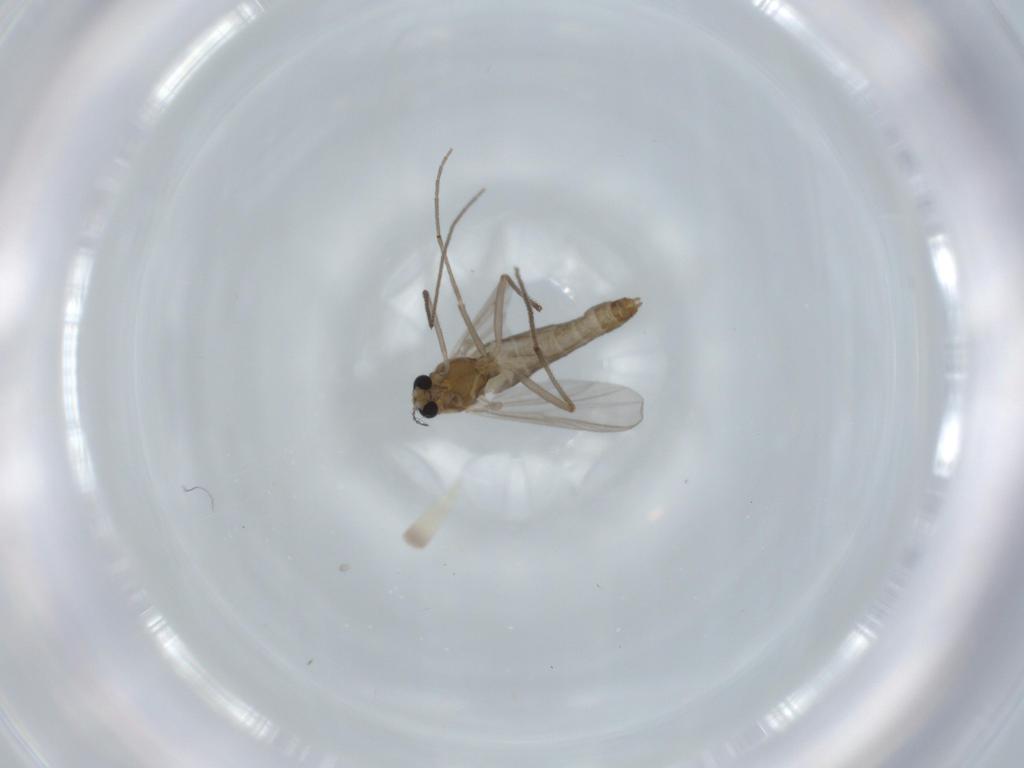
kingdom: Animalia
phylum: Arthropoda
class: Insecta
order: Diptera
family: Chironomidae
